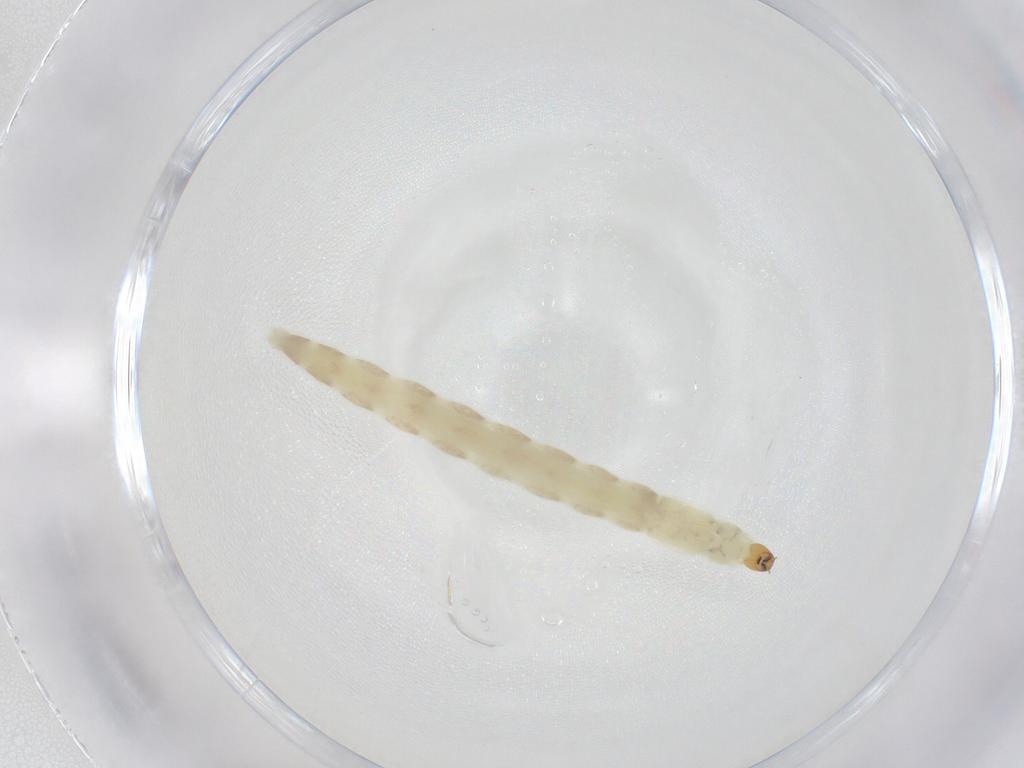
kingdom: Animalia
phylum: Arthropoda
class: Insecta
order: Diptera
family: Chironomidae
